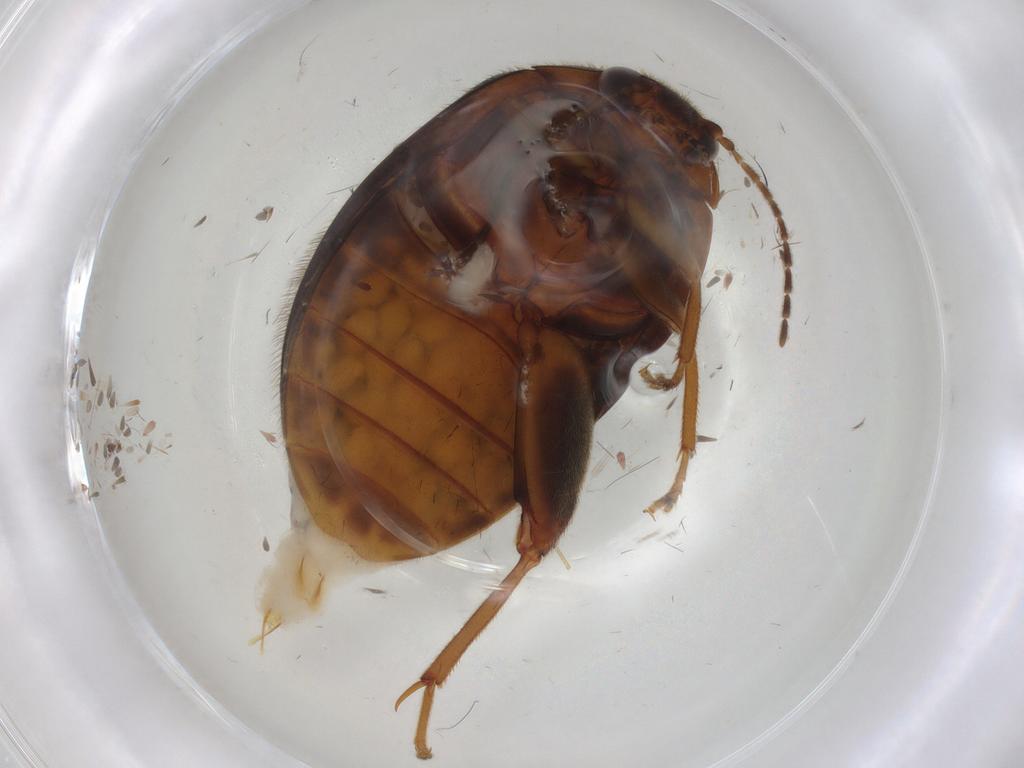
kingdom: Animalia
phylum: Arthropoda
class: Insecta
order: Coleoptera
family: Scirtidae
